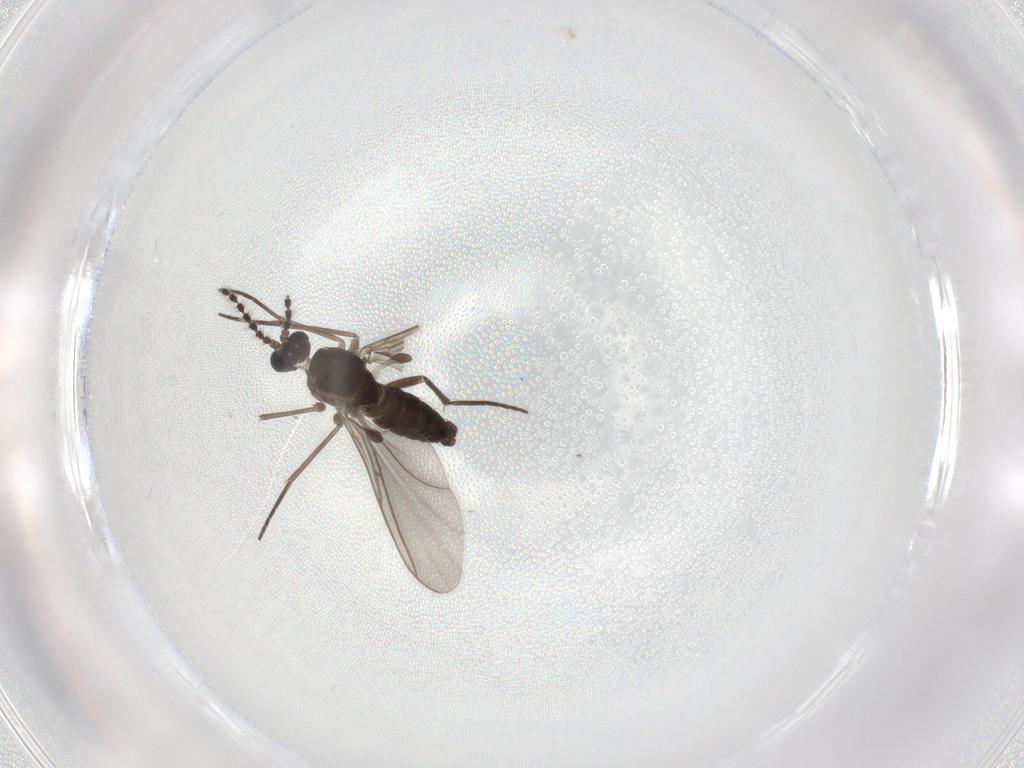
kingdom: Animalia
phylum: Arthropoda
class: Insecta
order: Diptera
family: Sciaridae
